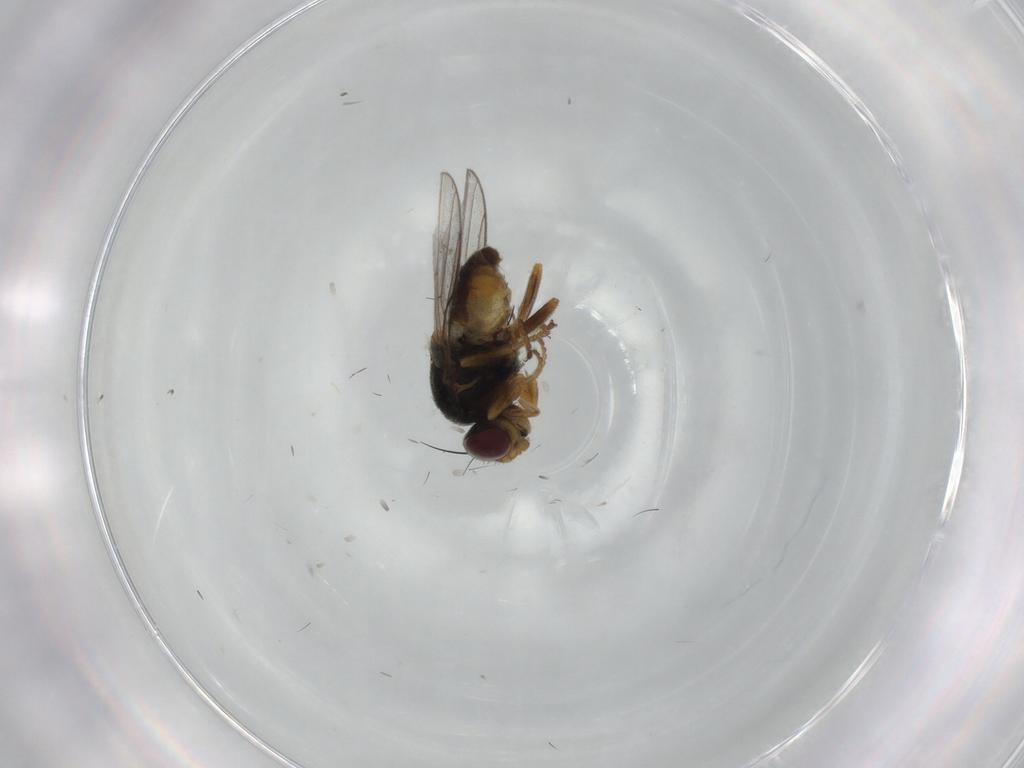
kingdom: Animalia
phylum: Arthropoda
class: Insecta
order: Diptera
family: Chloropidae
